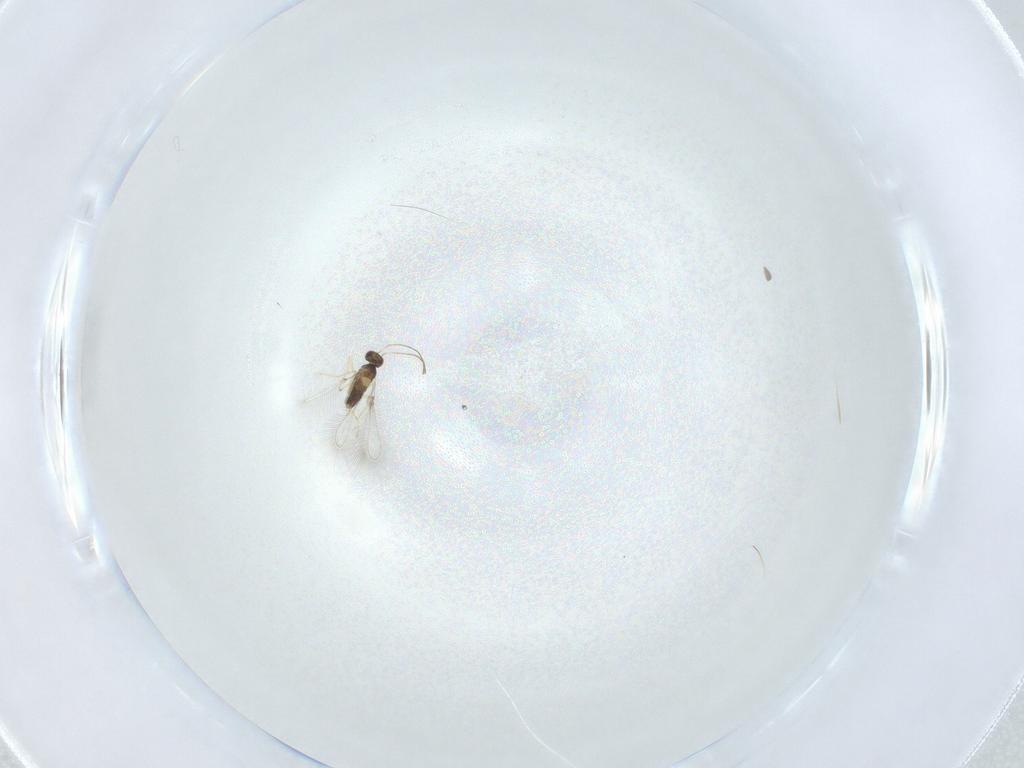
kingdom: Animalia
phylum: Arthropoda
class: Insecta
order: Hymenoptera
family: Mymaridae
